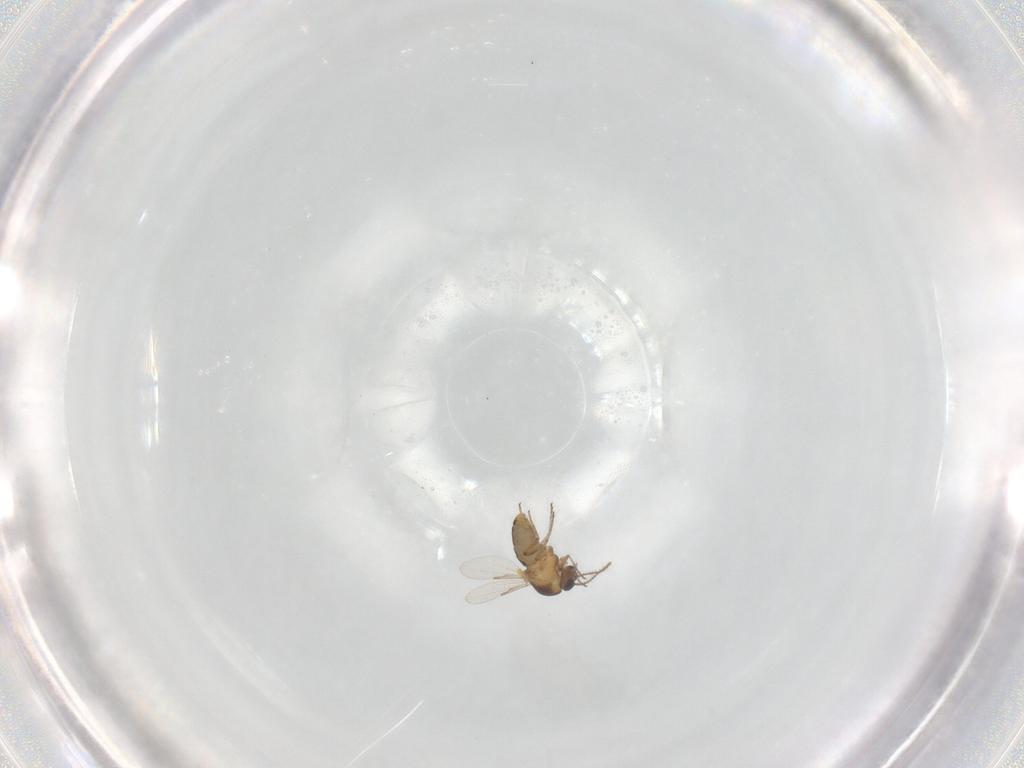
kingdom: Animalia
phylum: Arthropoda
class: Insecta
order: Diptera
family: Ceratopogonidae
